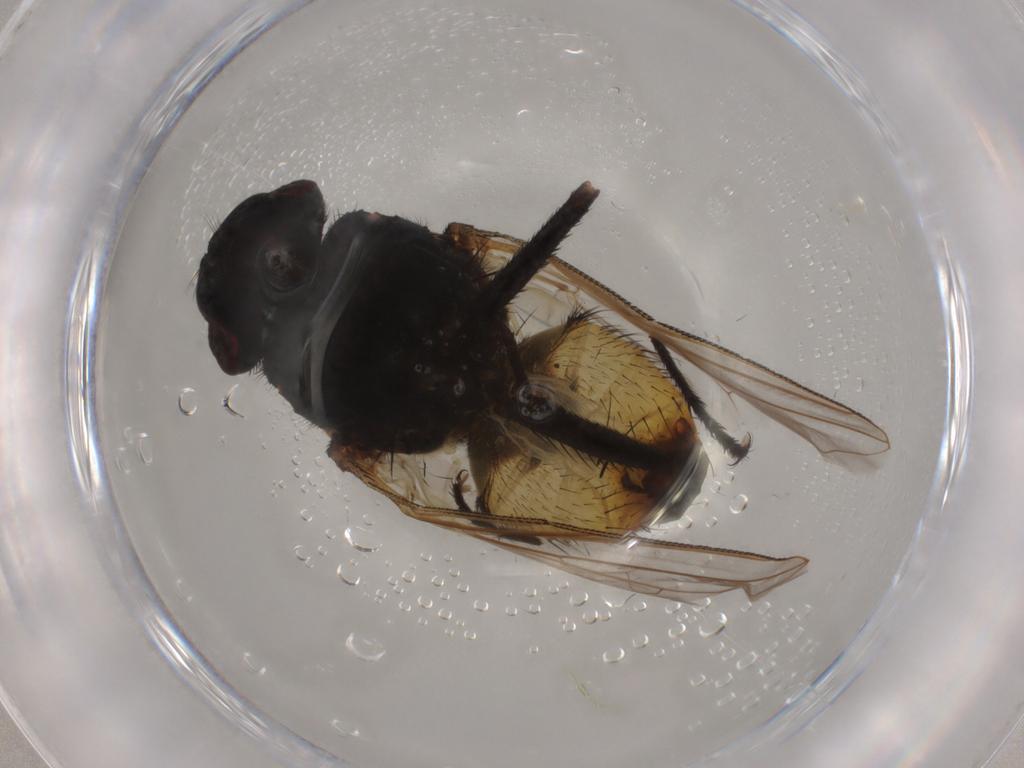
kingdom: Animalia
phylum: Arthropoda
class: Insecta
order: Diptera
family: Muscidae
